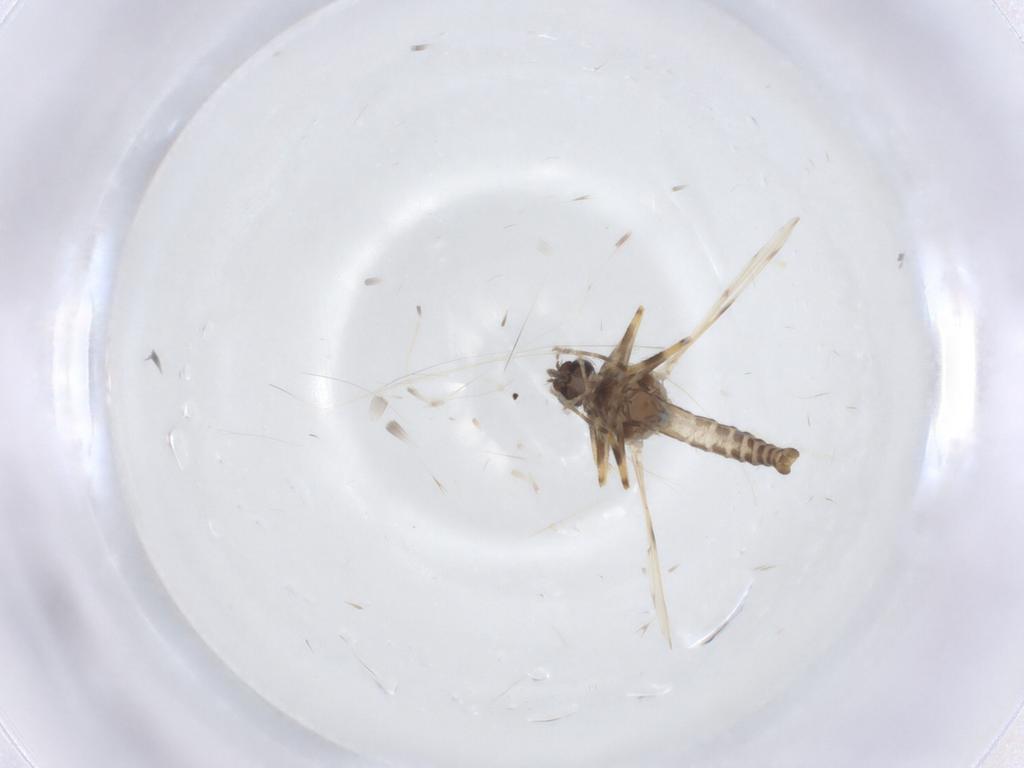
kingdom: Animalia
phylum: Arthropoda
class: Insecta
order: Diptera
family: Ceratopogonidae
